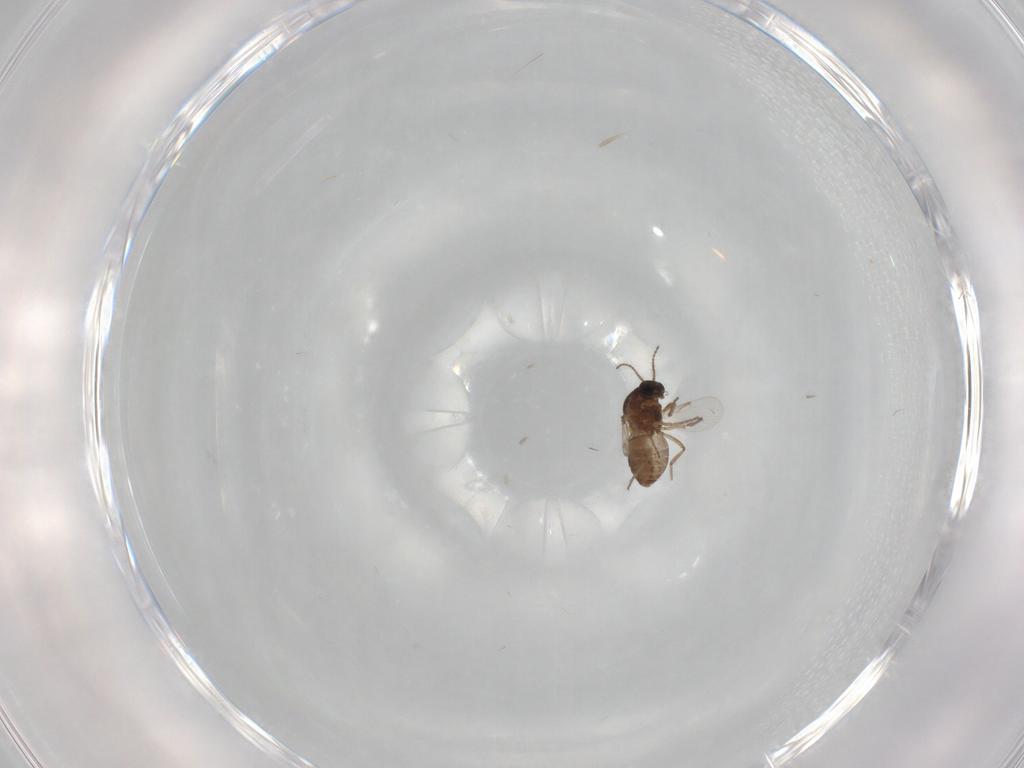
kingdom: Animalia
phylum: Arthropoda
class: Insecta
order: Diptera
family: Ceratopogonidae
